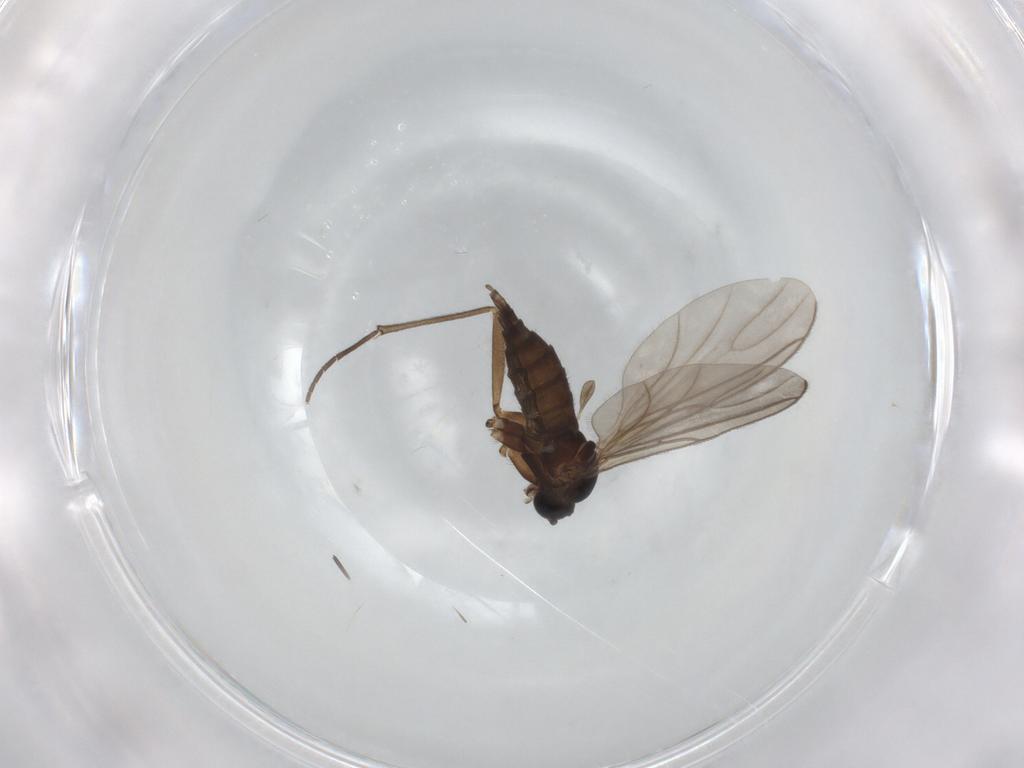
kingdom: Animalia
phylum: Arthropoda
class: Insecta
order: Diptera
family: Sciaridae
